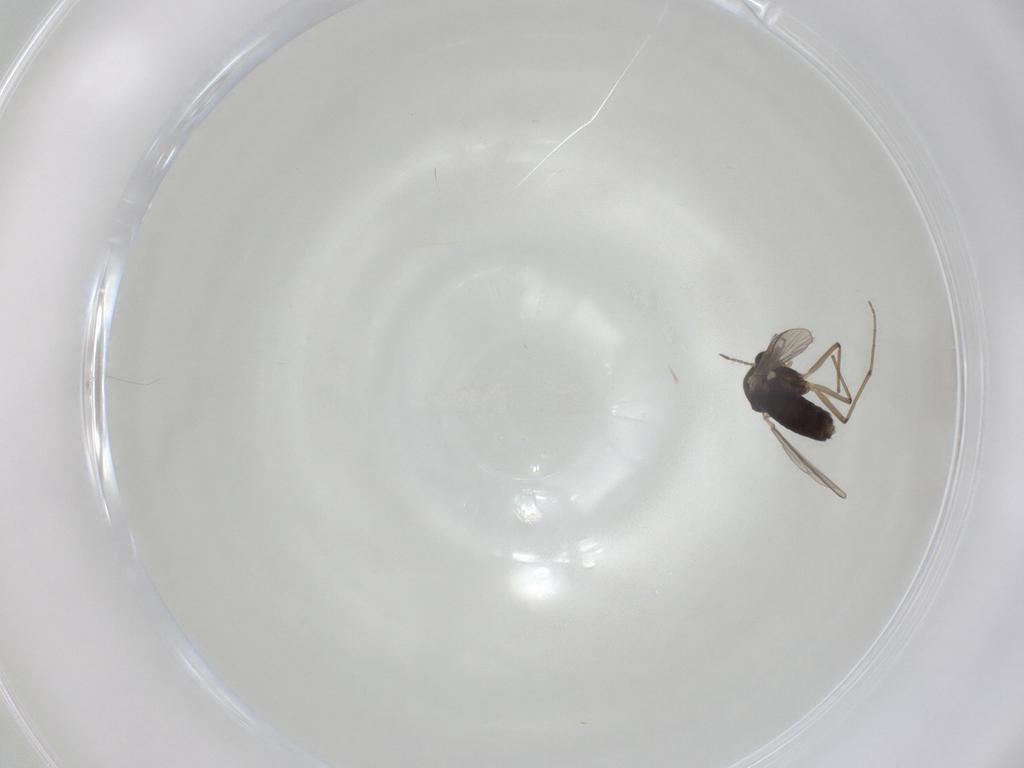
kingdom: Animalia
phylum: Arthropoda
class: Insecta
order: Diptera
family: Chironomidae
